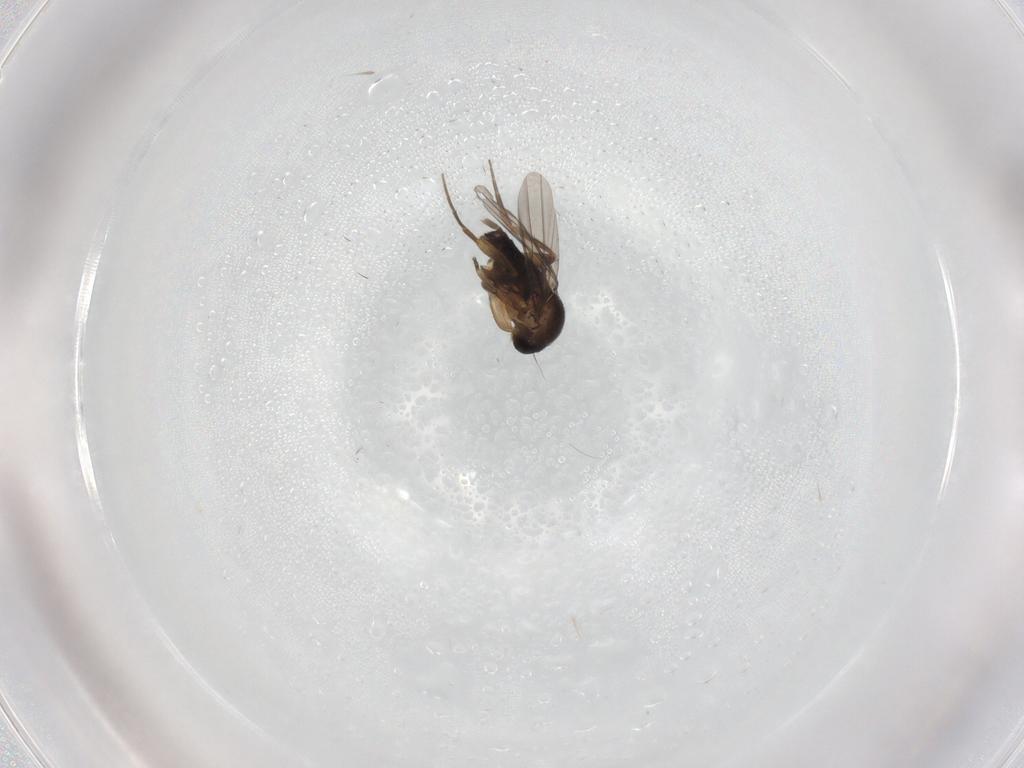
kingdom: Animalia
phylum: Arthropoda
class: Insecta
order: Diptera
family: Phoridae
